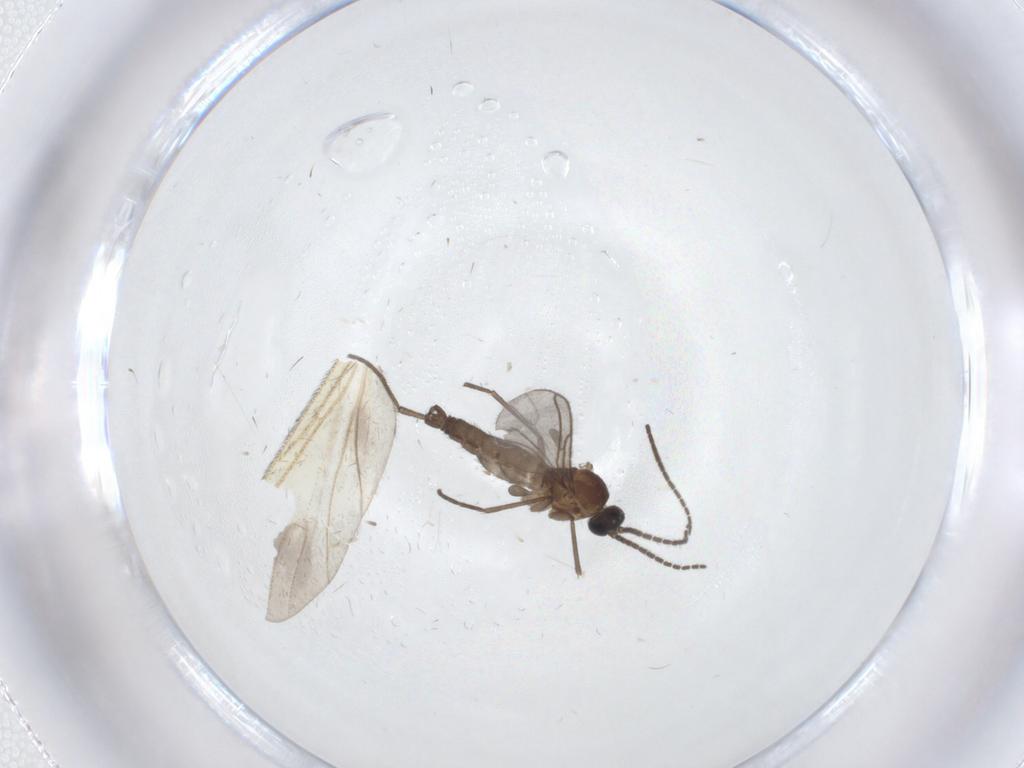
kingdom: Animalia
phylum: Arthropoda
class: Insecta
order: Diptera
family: Sciaridae
